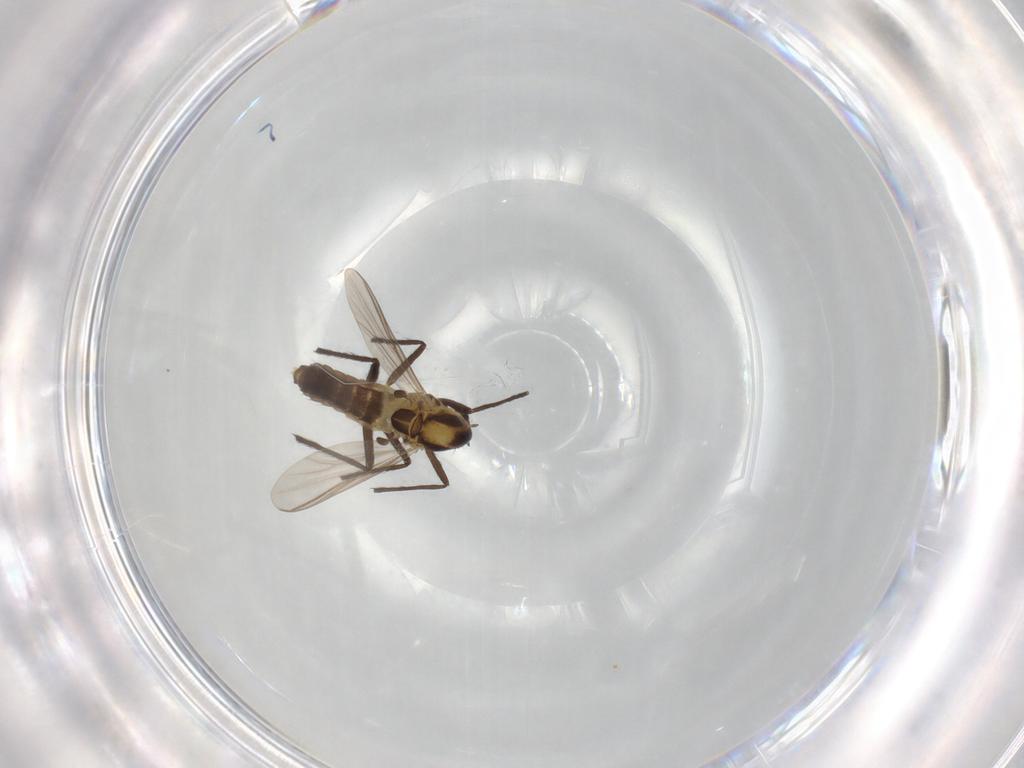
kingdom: Animalia
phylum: Arthropoda
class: Insecta
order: Diptera
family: Chironomidae
